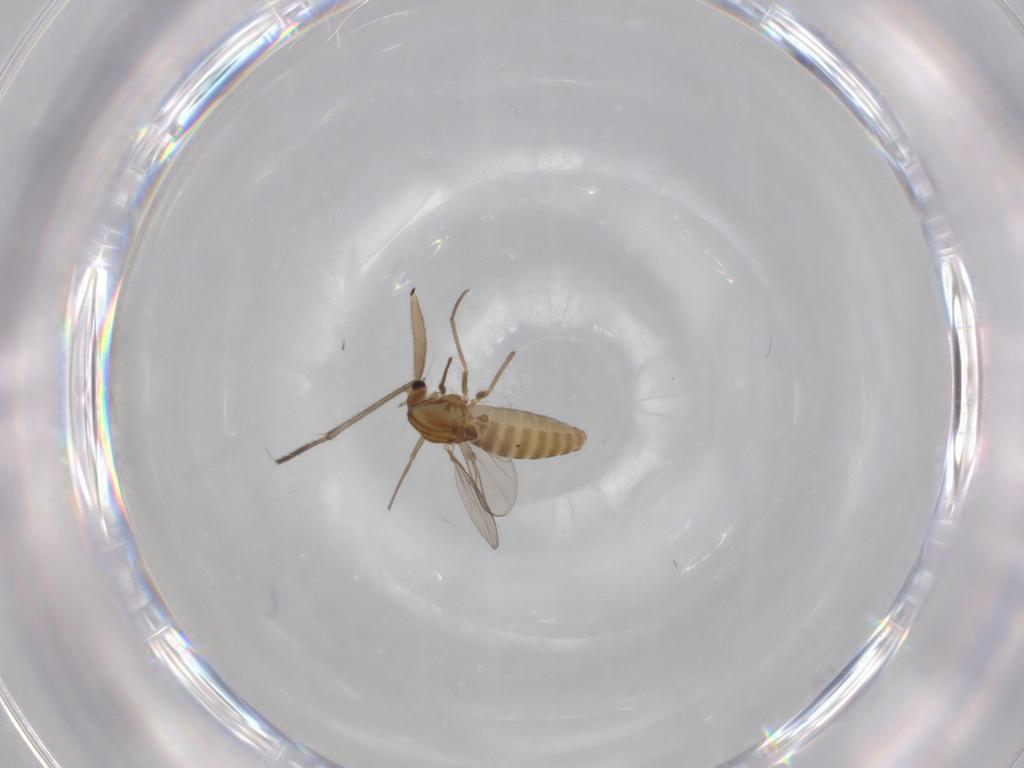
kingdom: Animalia
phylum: Arthropoda
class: Insecta
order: Diptera
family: Chironomidae
